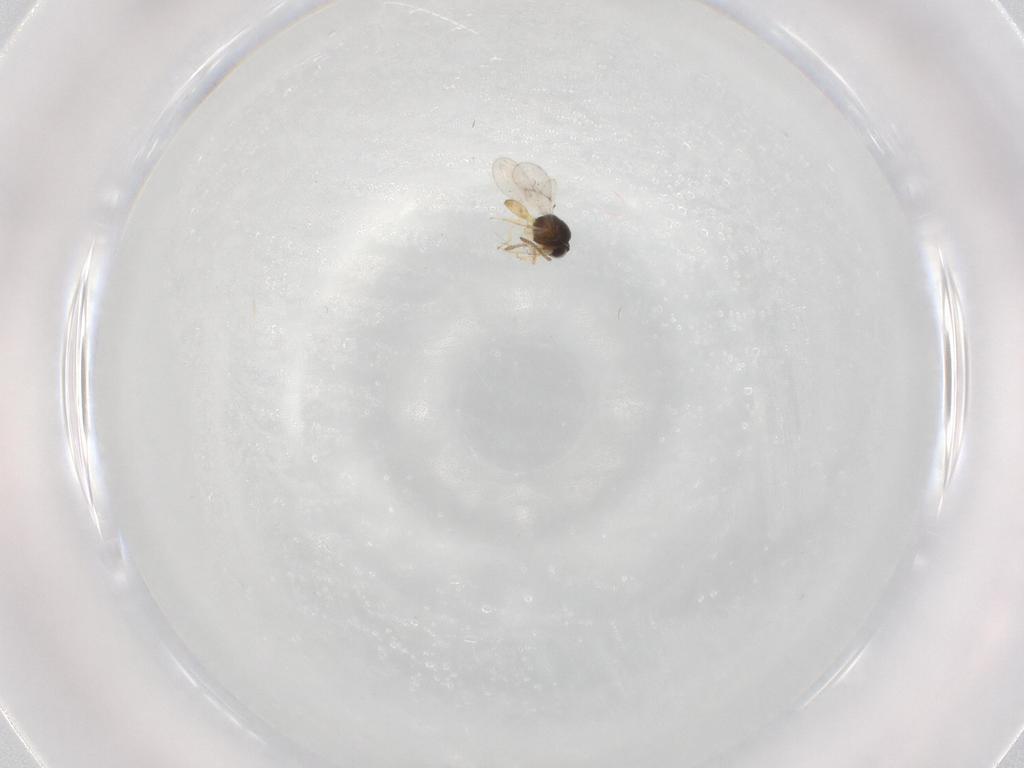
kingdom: Animalia
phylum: Arthropoda
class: Insecta
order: Hymenoptera
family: Scelionidae
